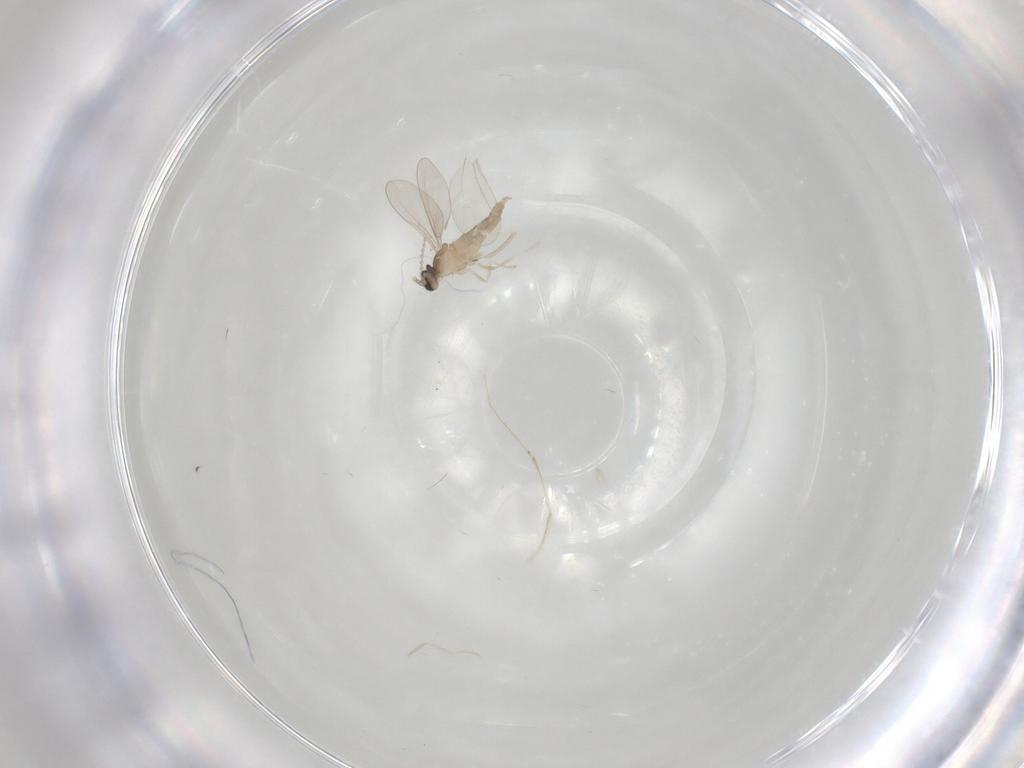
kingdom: Animalia
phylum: Arthropoda
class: Insecta
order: Diptera
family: Cecidomyiidae
